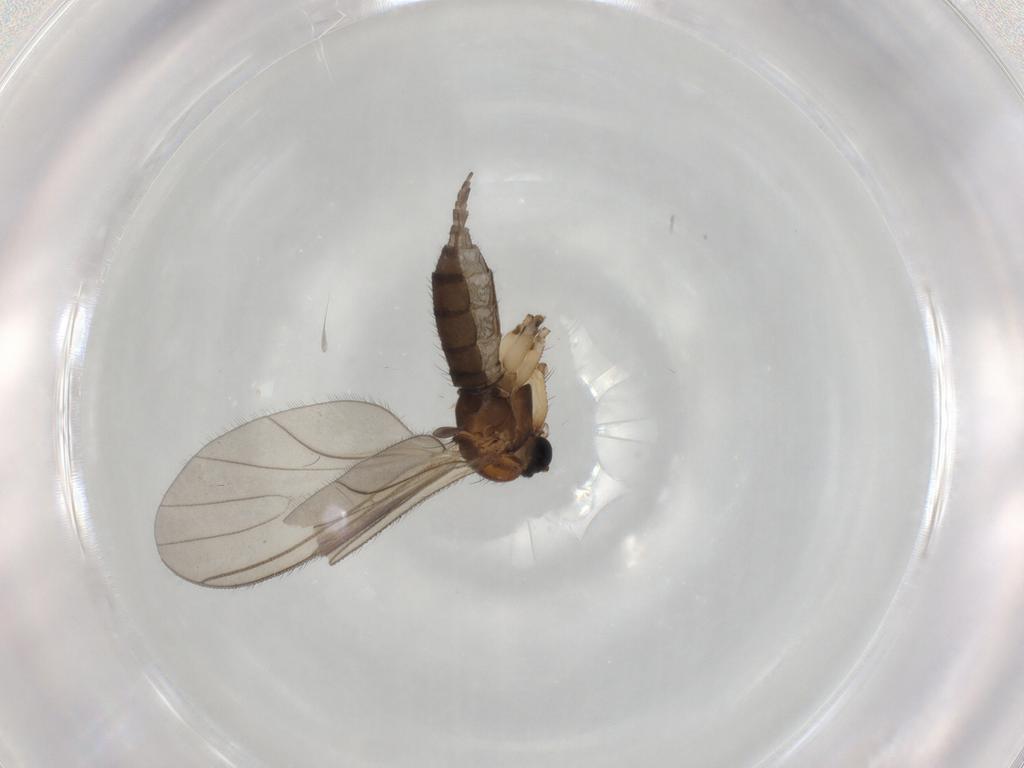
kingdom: Animalia
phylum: Arthropoda
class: Insecta
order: Diptera
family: Sciaridae
